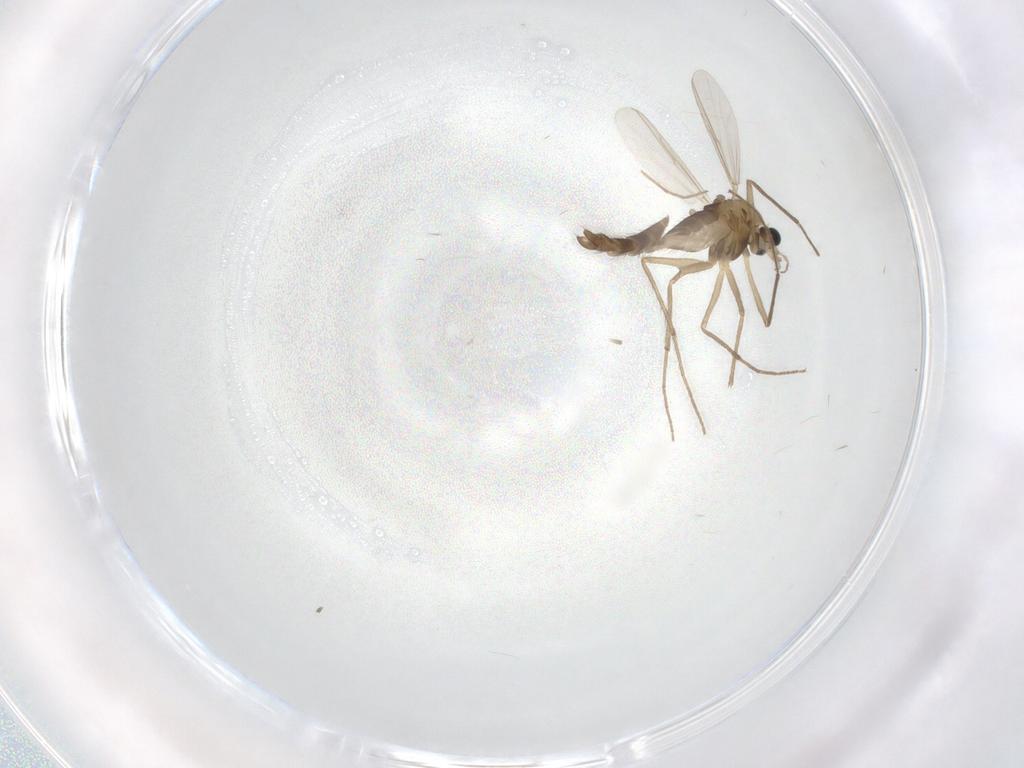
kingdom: Animalia
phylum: Arthropoda
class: Insecta
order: Diptera
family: Chironomidae
